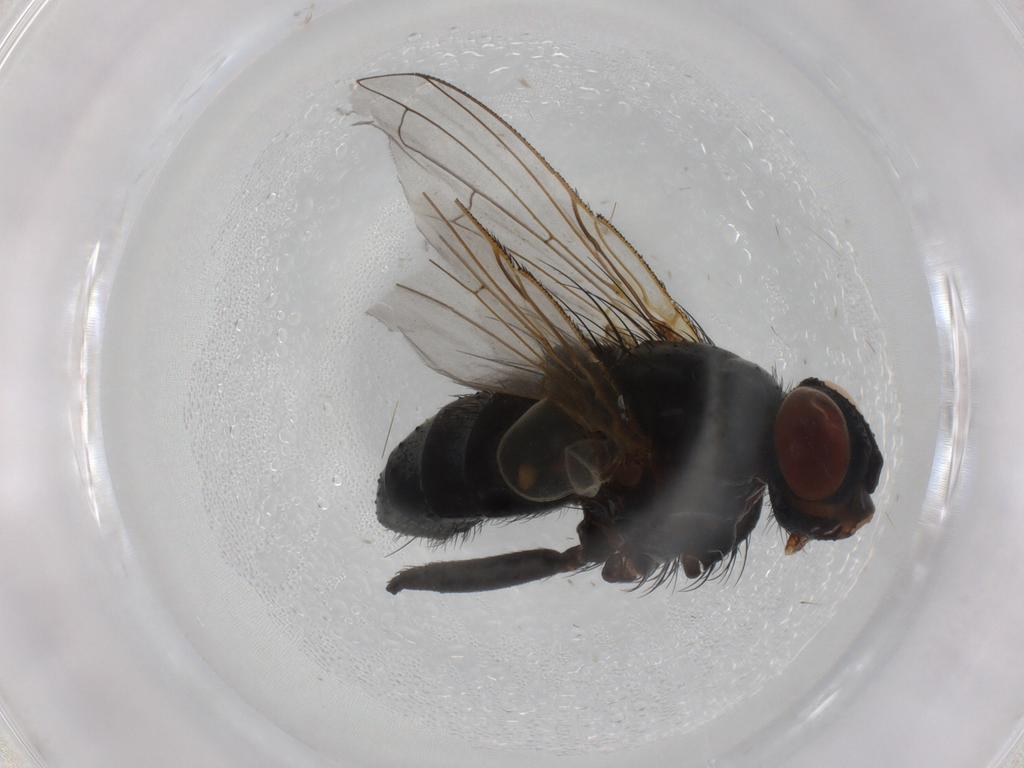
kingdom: Animalia
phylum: Arthropoda
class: Insecta
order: Diptera
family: Tachinidae
